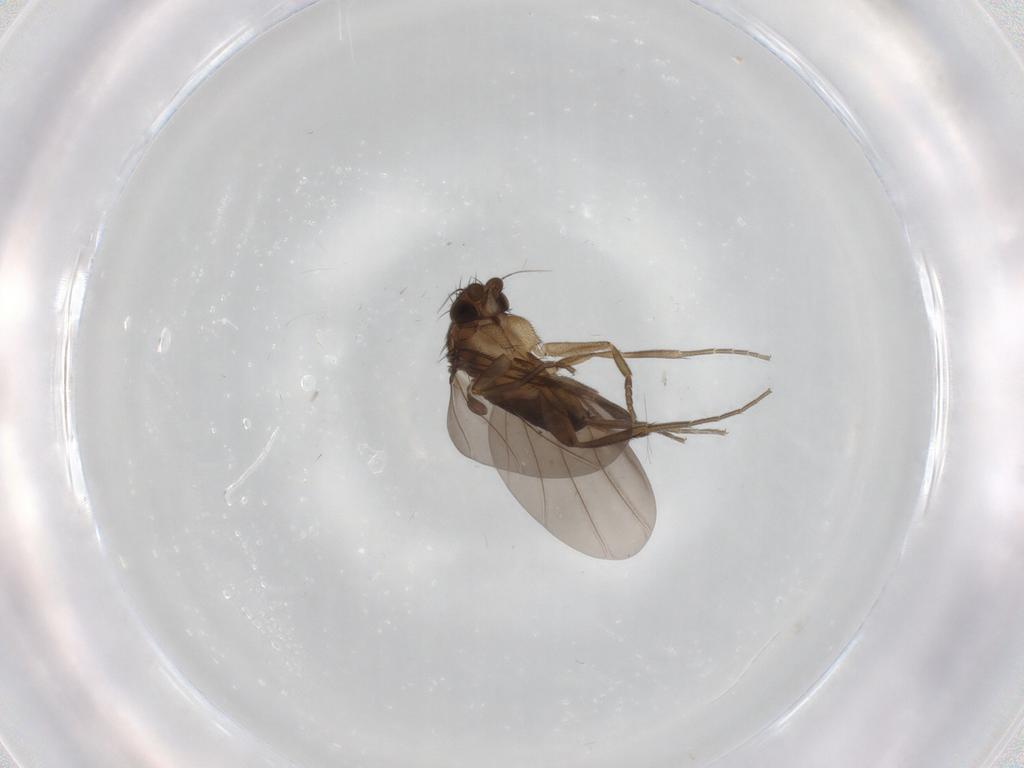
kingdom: Animalia
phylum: Arthropoda
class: Insecta
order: Diptera
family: Phoridae
